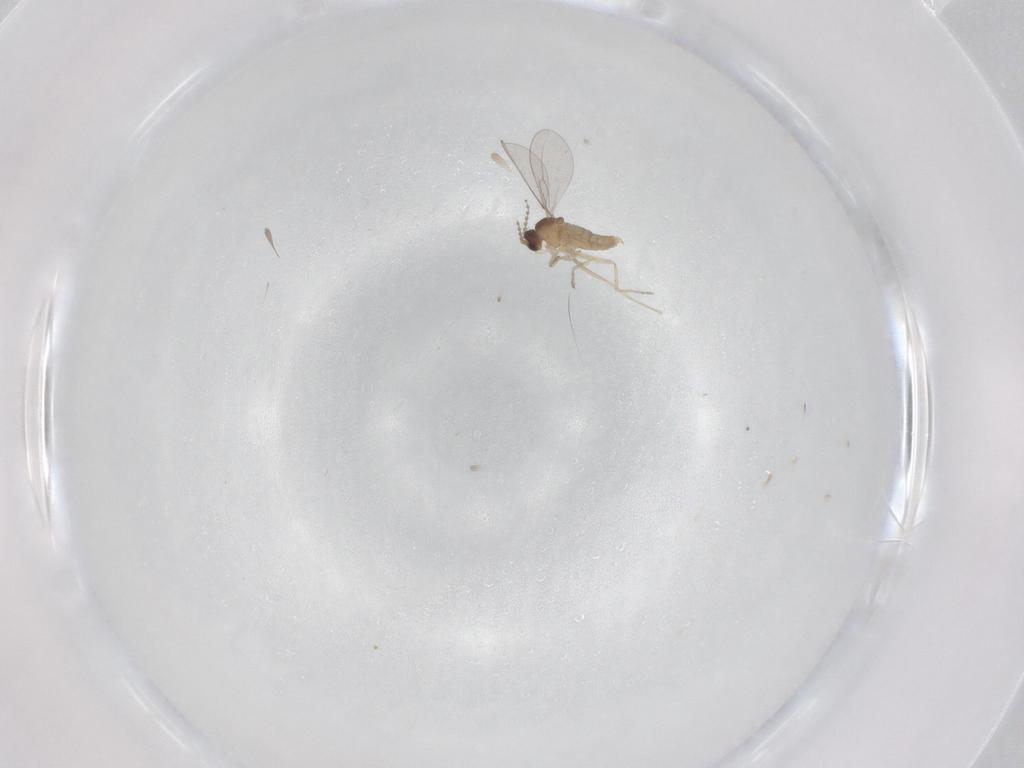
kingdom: Animalia
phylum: Arthropoda
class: Insecta
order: Diptera
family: Cecidomyiidae
